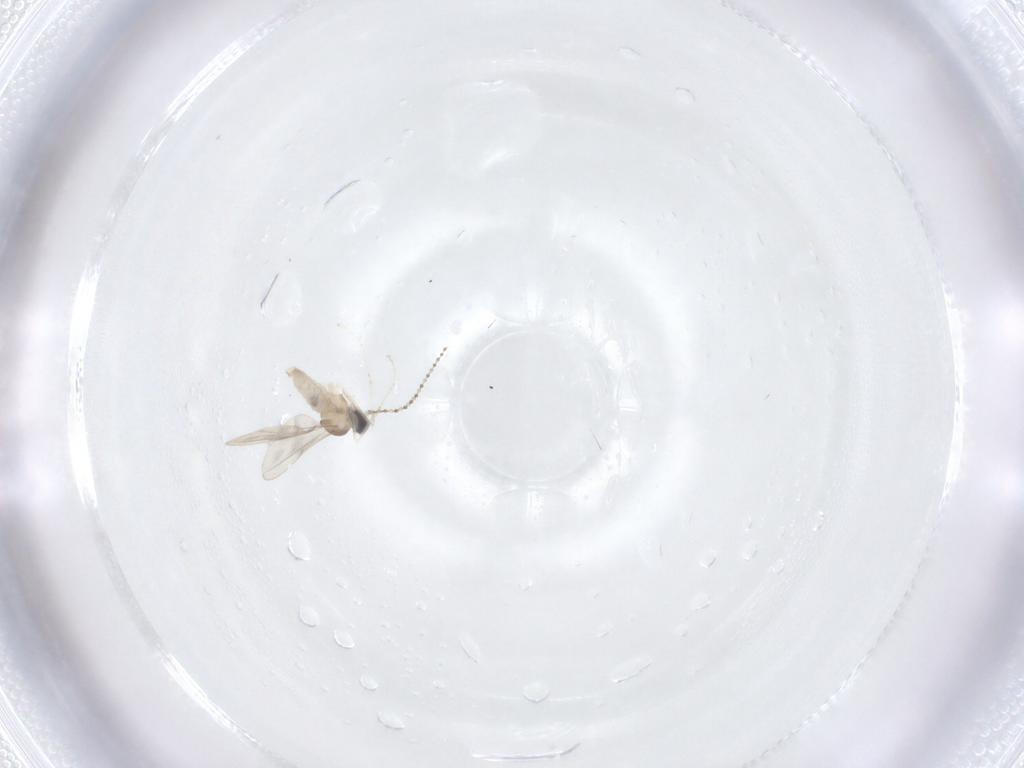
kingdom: Animalia
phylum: Arthropoda
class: Insecta
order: Diptera
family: Cecidomyiidae
